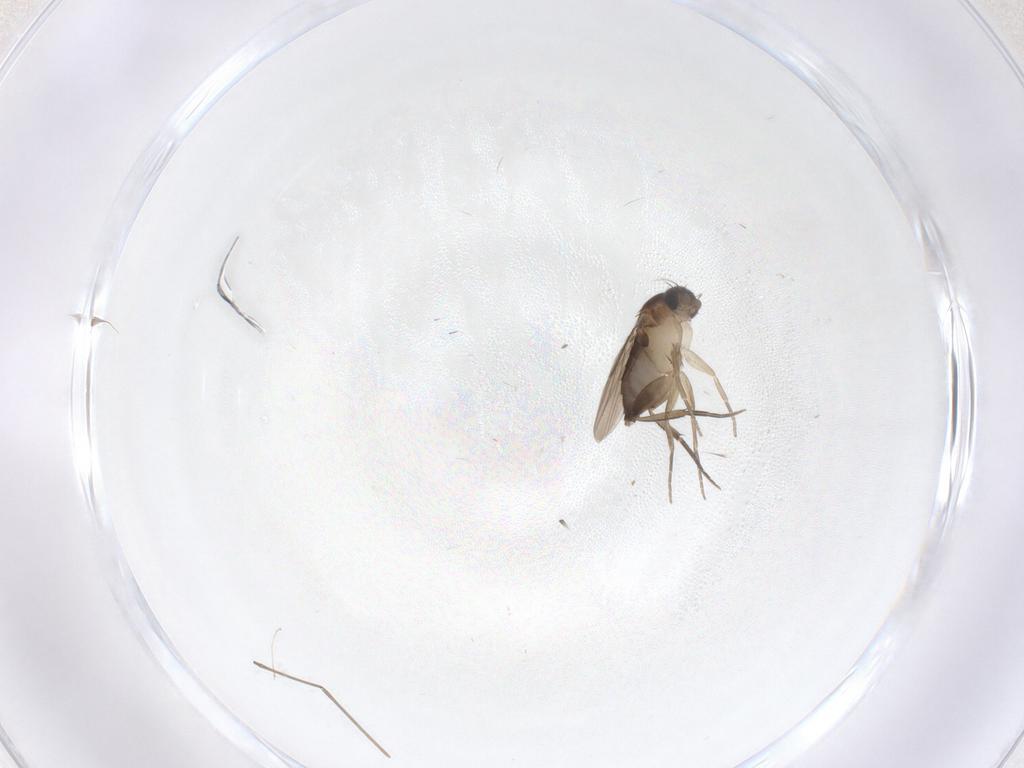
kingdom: Animalia
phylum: Arthropoda
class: Insecta
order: Diptera
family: Phoridae
